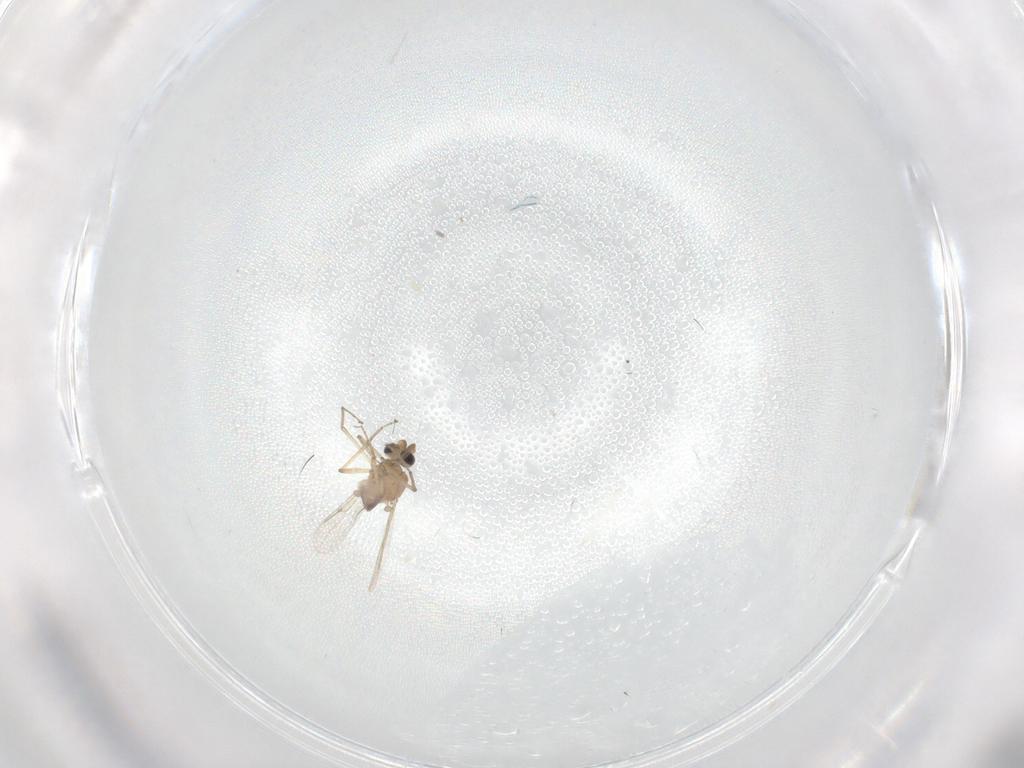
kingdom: Animalia
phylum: Arthropoda
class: Insecta
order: Diptera
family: Cecidomyiidae
